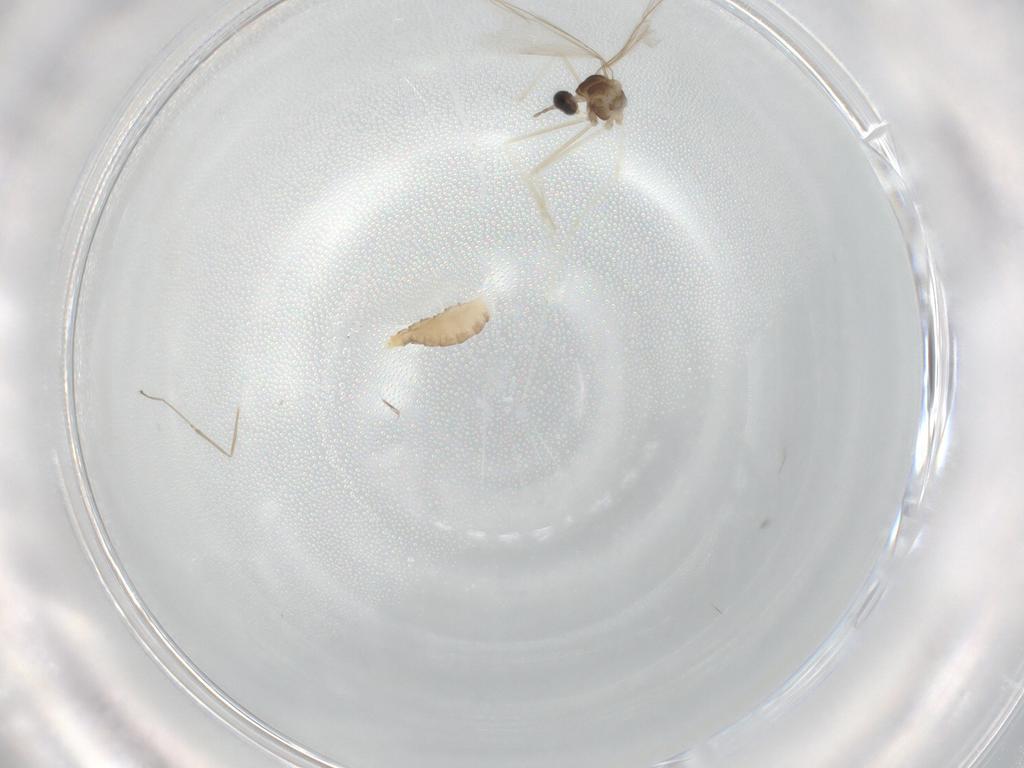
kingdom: Animalia
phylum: Arthropoda
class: Insecta
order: Diptera
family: Cecidomyiidae
